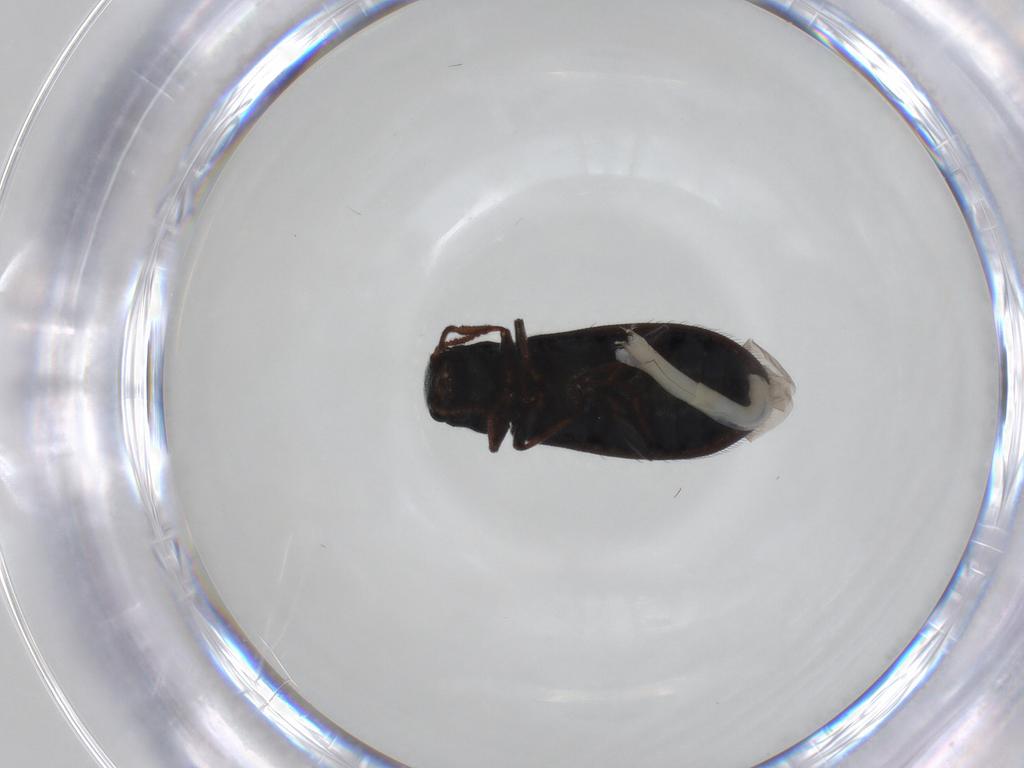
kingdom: Animalia
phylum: Arthropoda
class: Insecta
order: Coleoptera
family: Melyridae
